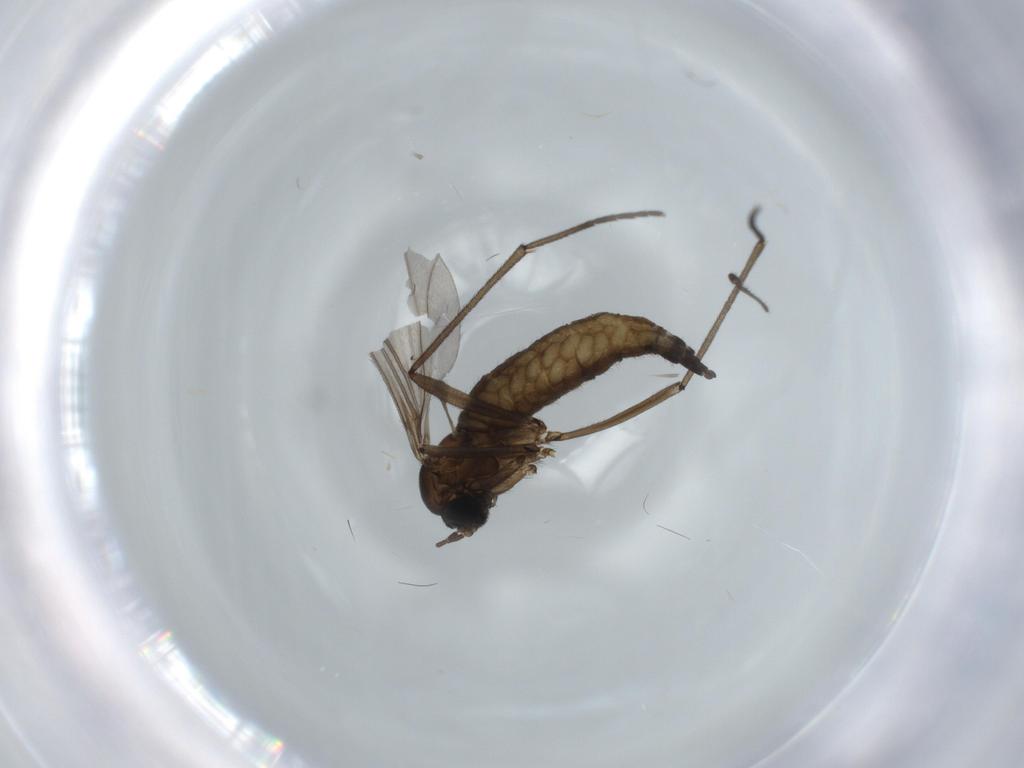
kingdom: Animalia
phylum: Arthropoda
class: Insecta
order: Diptera
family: Sciaridae
